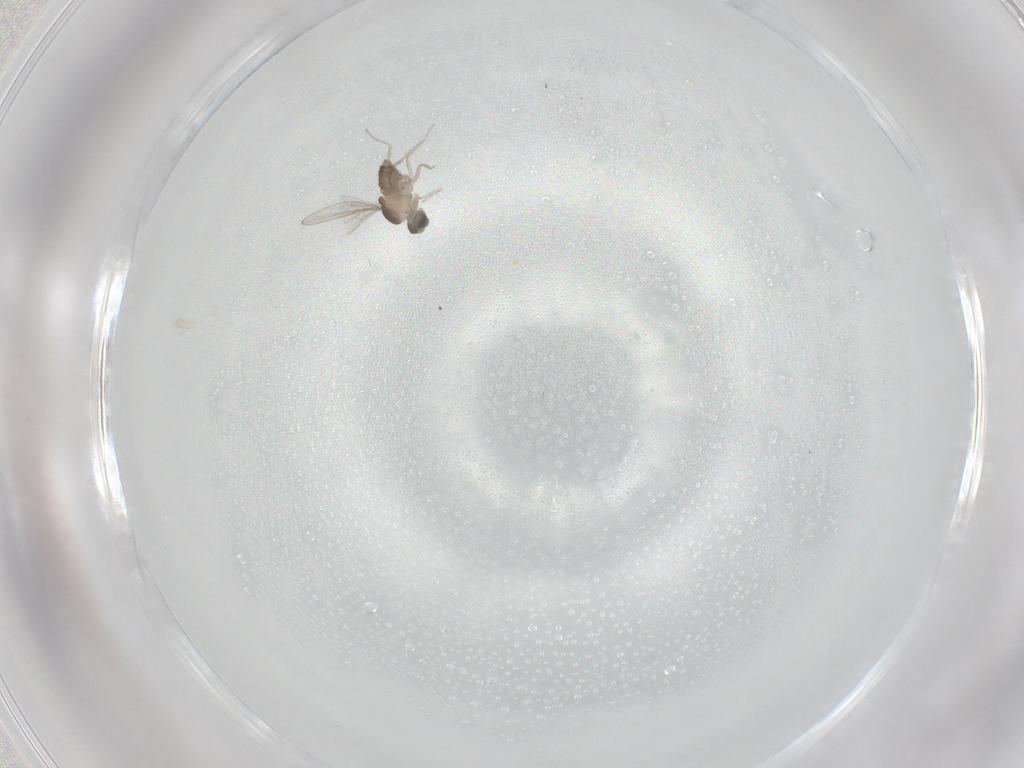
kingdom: Animalia
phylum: Arthropoda
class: Insecta
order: Diptera
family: Cecidomyiidae
